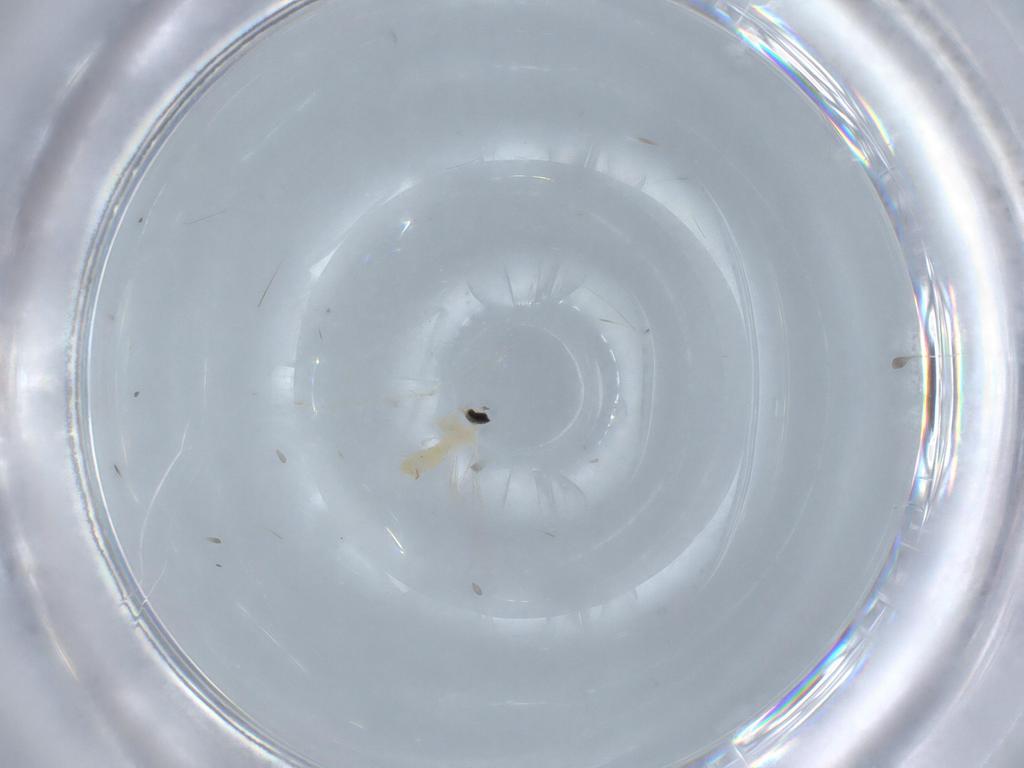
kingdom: Animalia
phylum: Arthropoda
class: Insecta
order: Diptera
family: Cecidomyiidae
